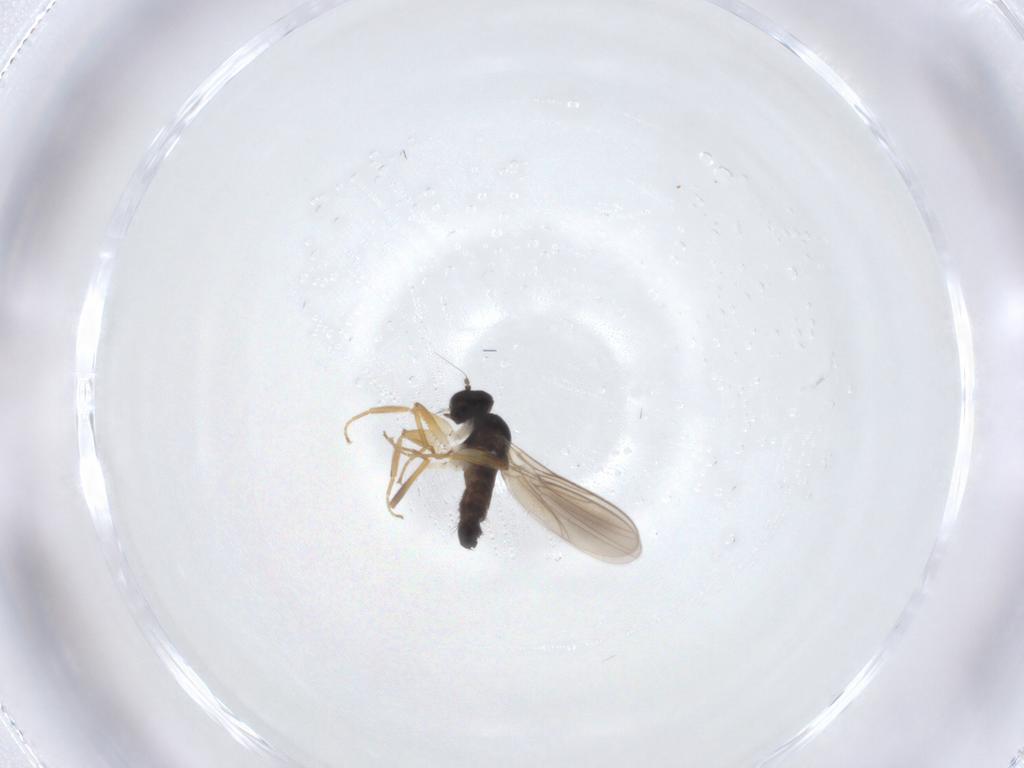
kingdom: Animalia
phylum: Arthropoda
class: Insecta
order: Diptera
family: Hybotidae
